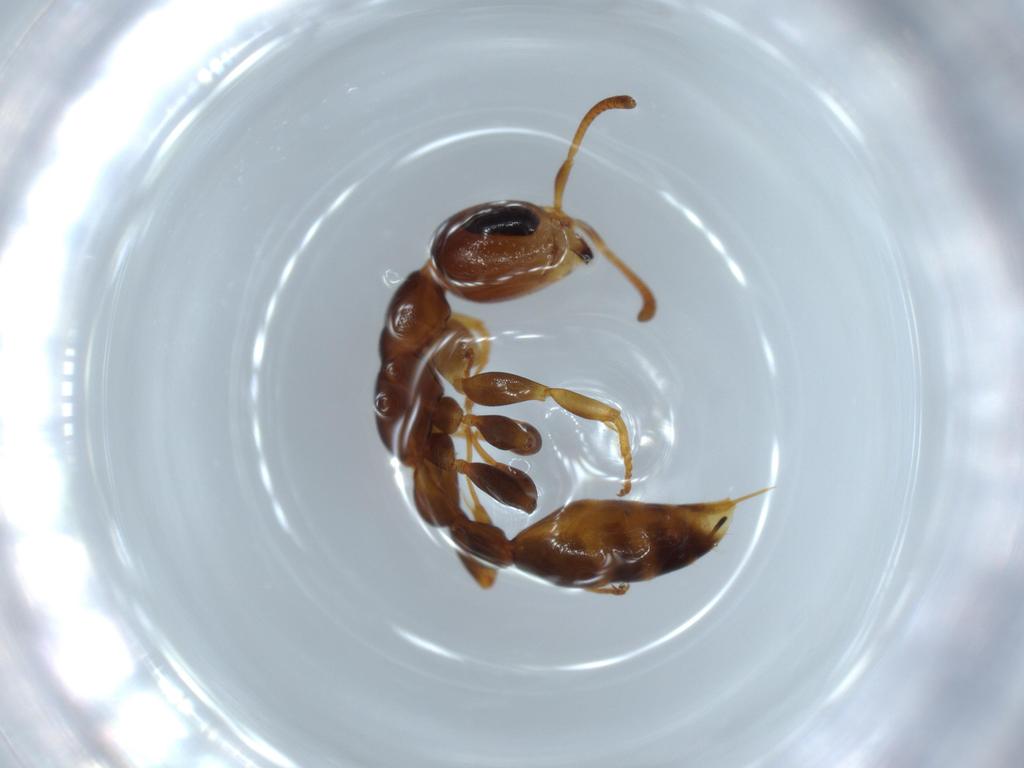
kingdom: Animalia
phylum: Arthropoda
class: Insecta
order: Hymenoptera
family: Formicidae
